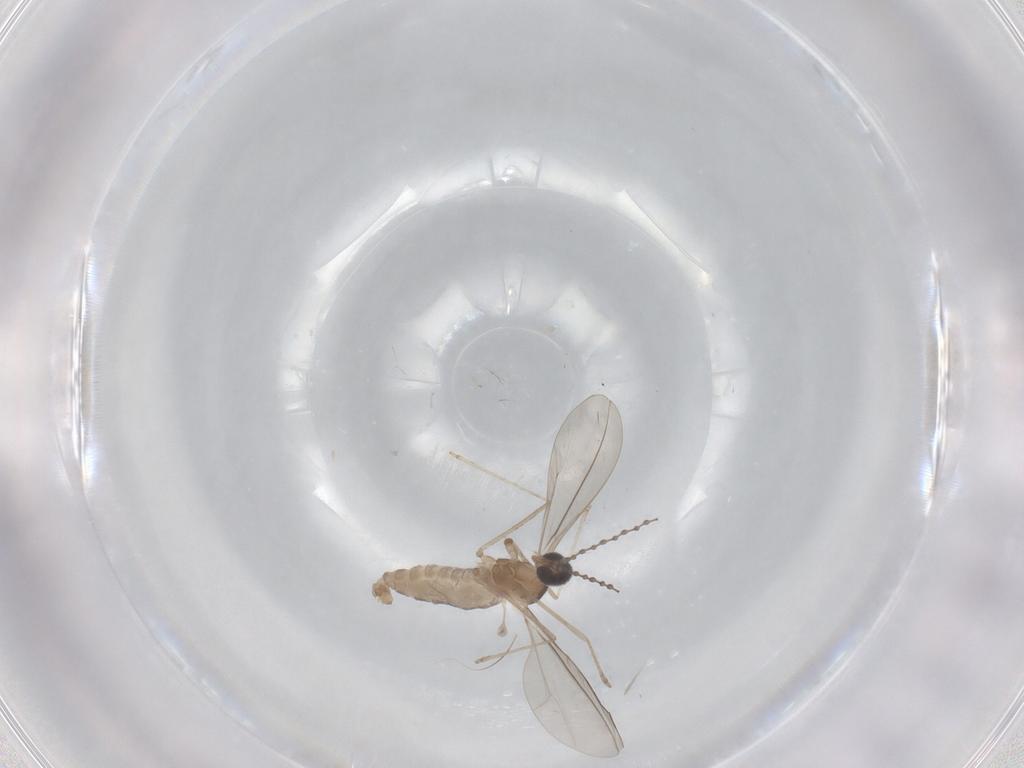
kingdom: Animalia
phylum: Arthropoda
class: Insecta
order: Diptera
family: Cecidomyiidae
